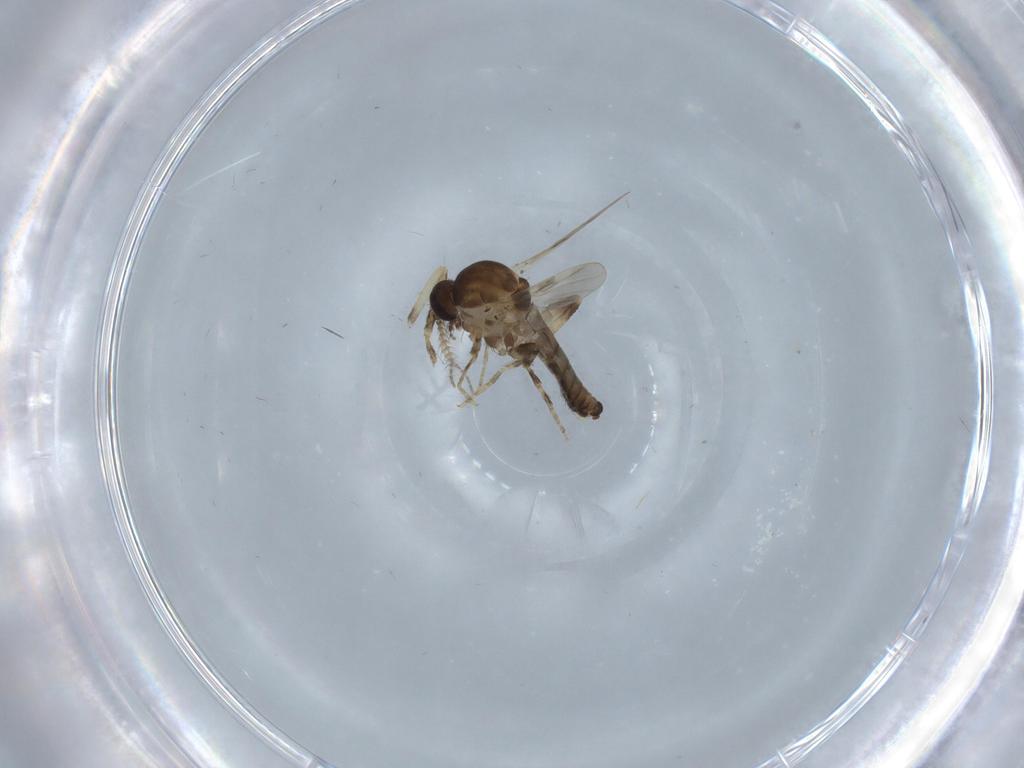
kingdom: Animalia
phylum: Arthropoda
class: Insecta
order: Diptera
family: Ceratopogonidae
